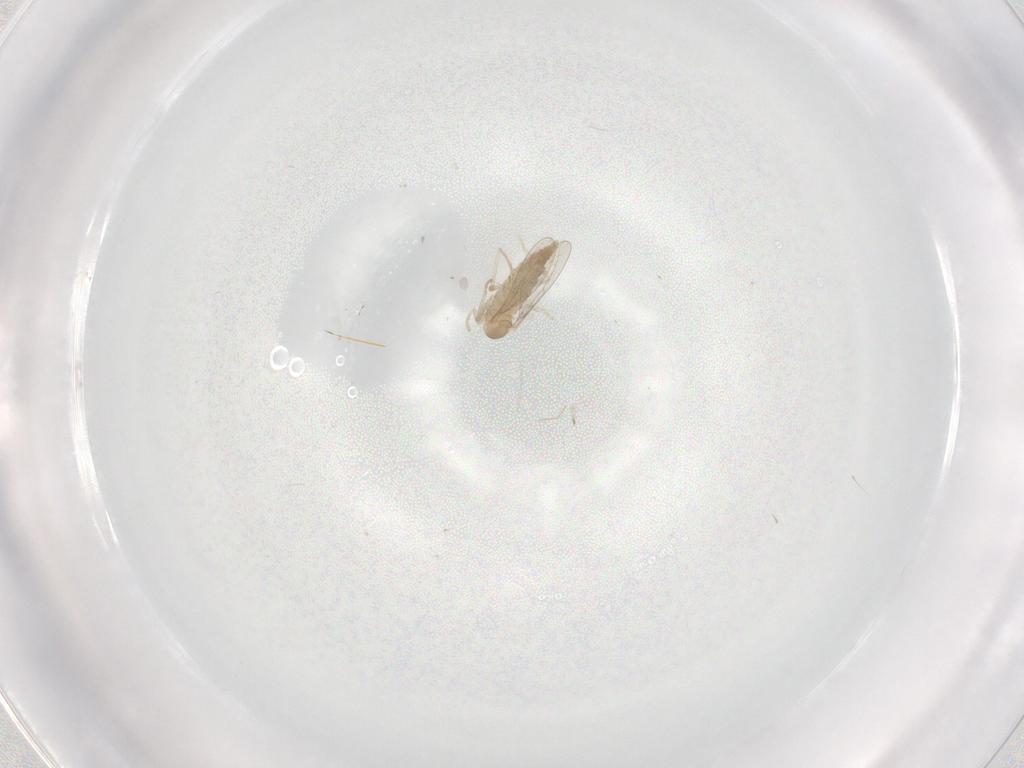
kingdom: Animalia
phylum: Arthropoda
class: Insecta
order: Diptera
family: Cecidomyiidae
